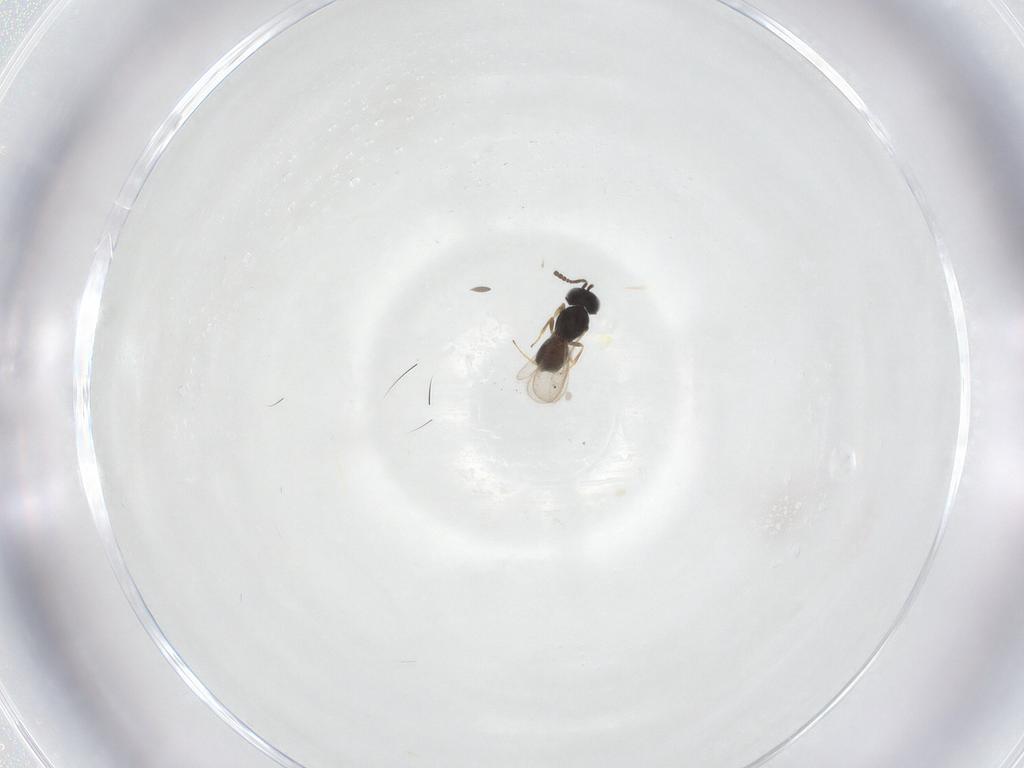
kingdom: Animalia
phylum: Arthropoda
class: Insecta
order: Hymenoptera
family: Scelionidae
